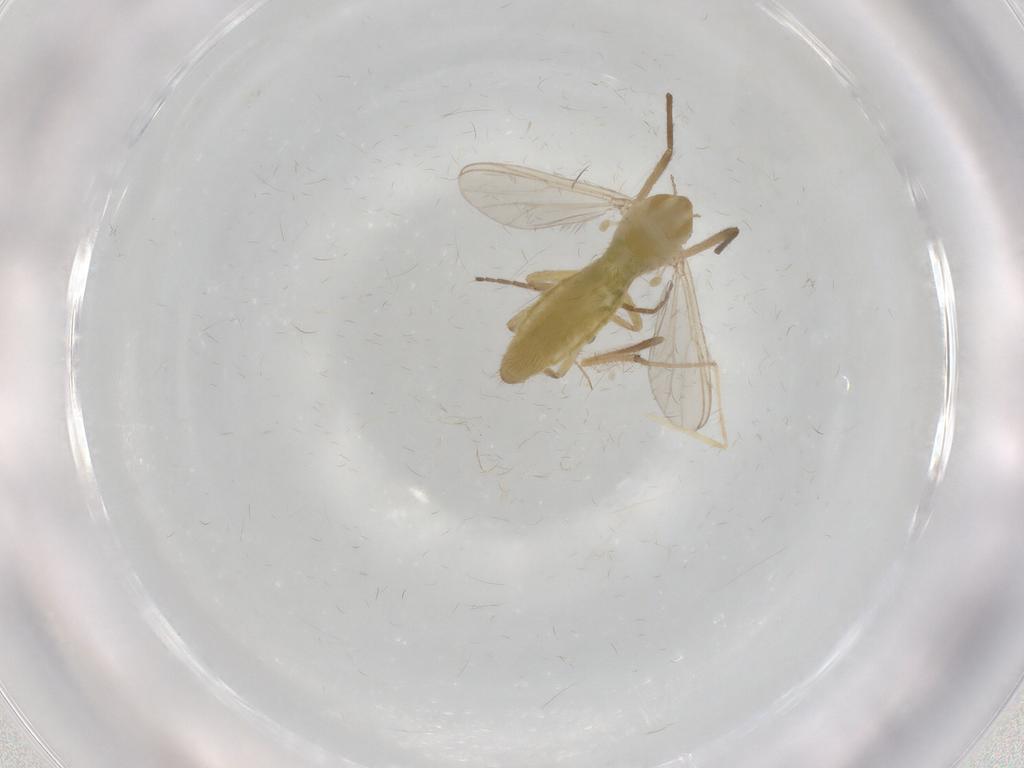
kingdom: Animalia
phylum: Arthropoda
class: Insecta
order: Diptera
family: Chironomidae
